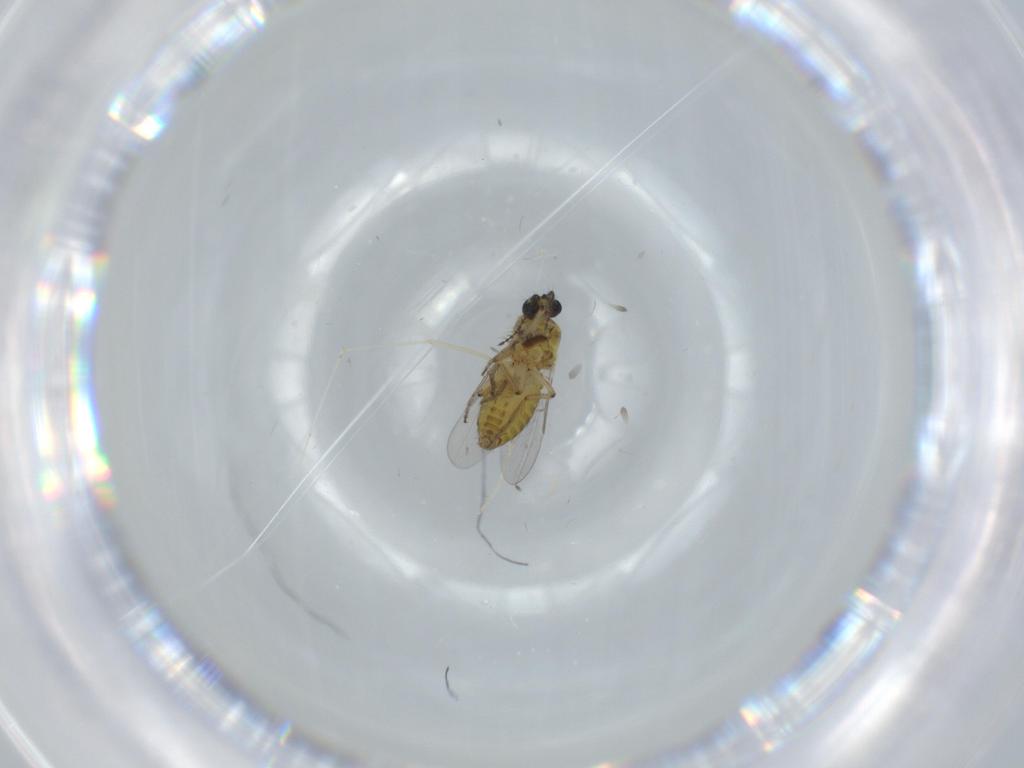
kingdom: Animalia
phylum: Arthropoda
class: Insecta
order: Diptera
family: Ceratopogonidae
